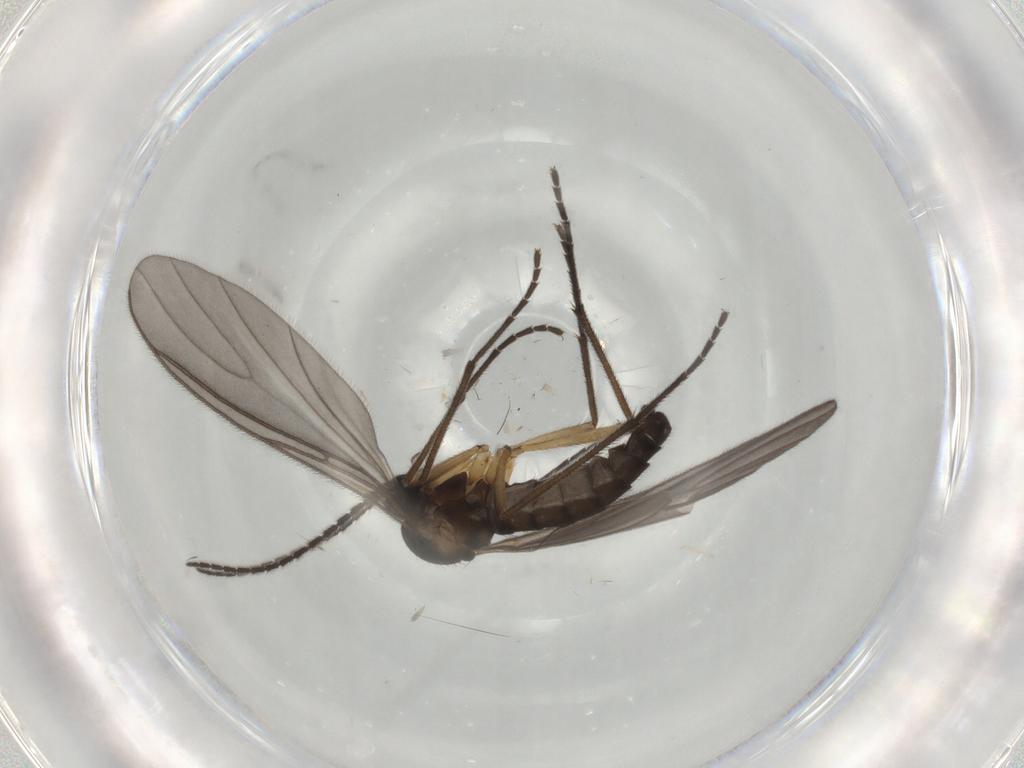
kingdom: Animalia
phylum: Arthropoda
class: Insecta
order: Diptera
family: Sciaridae
